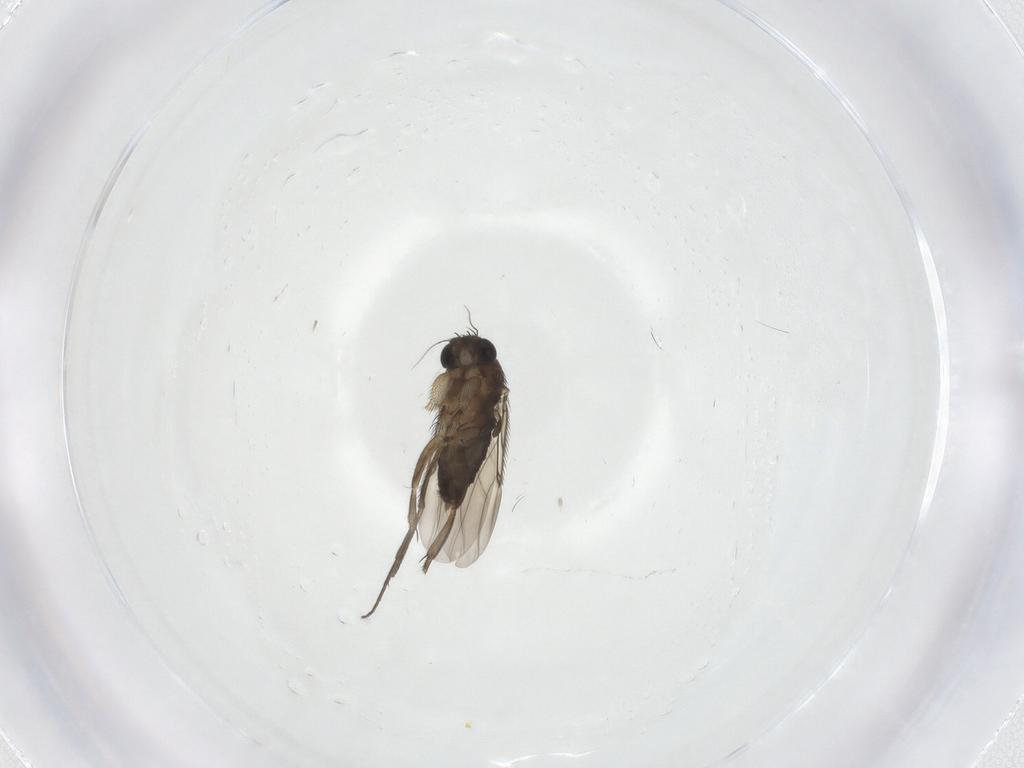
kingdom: Animalia
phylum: Arthropoda
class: Insecta
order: Diptera
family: Phoridae
